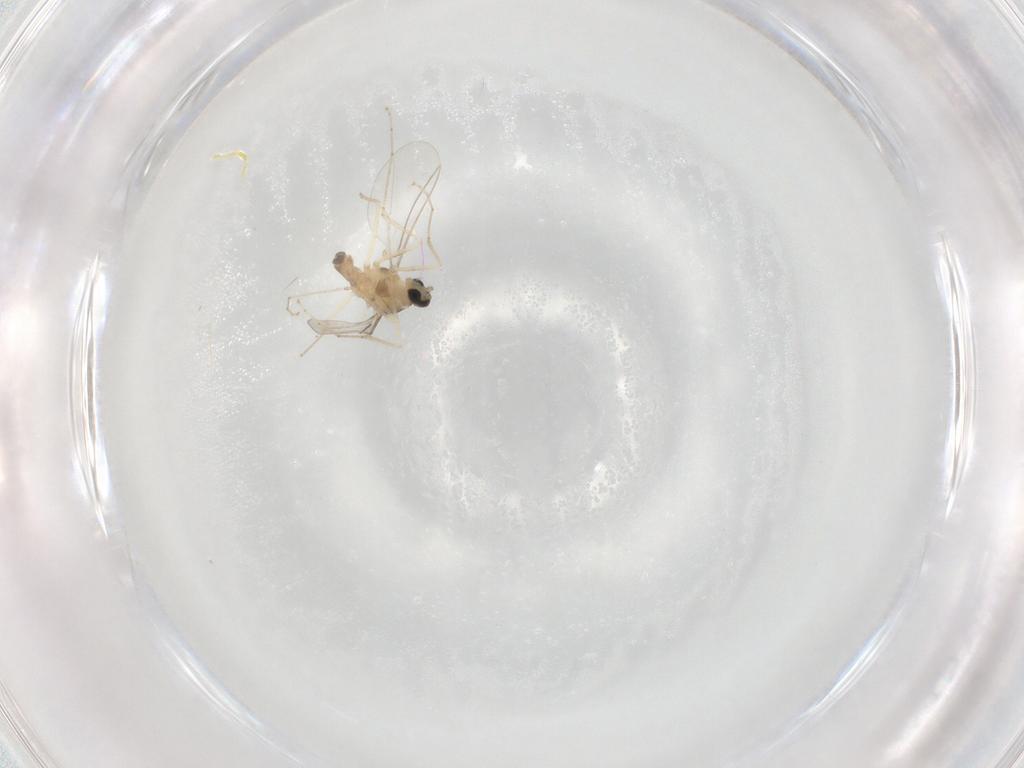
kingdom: Animalia
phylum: Arthropoda
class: Insecta
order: Diptera
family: Cecidomyiidae
